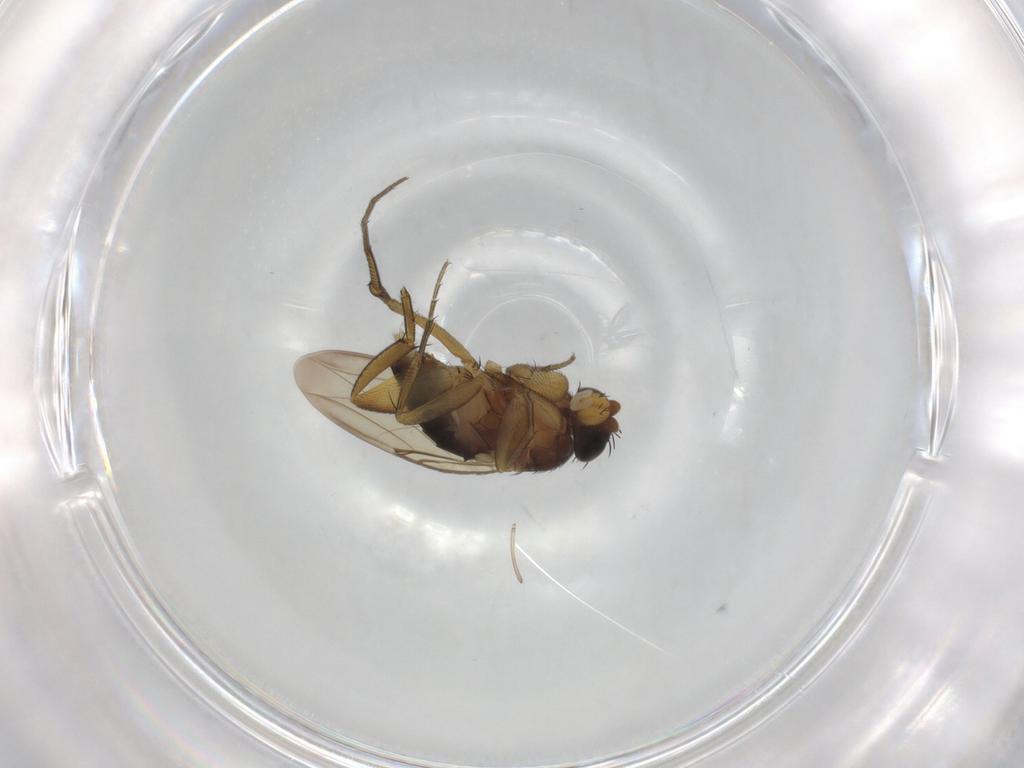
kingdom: Animalia
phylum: Arthropoda
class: Insecta
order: Diptera
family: Phoridae
